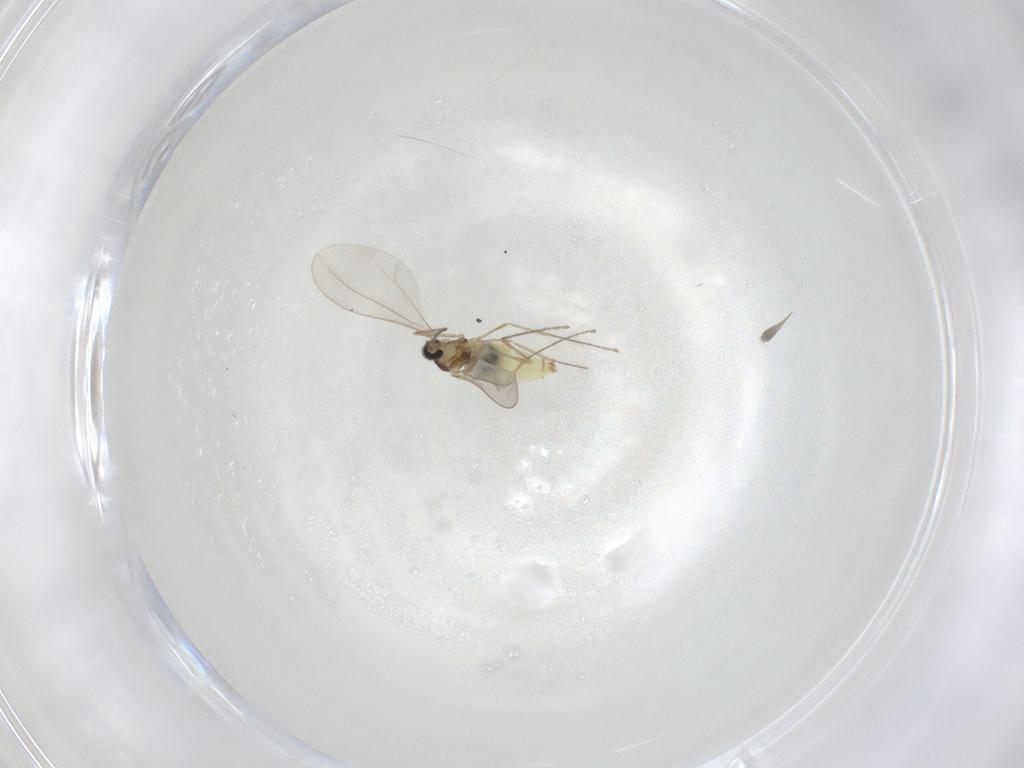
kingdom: Animalia
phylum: Arthropoda
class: Insecta
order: Diptera
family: Cecidomyiidae
